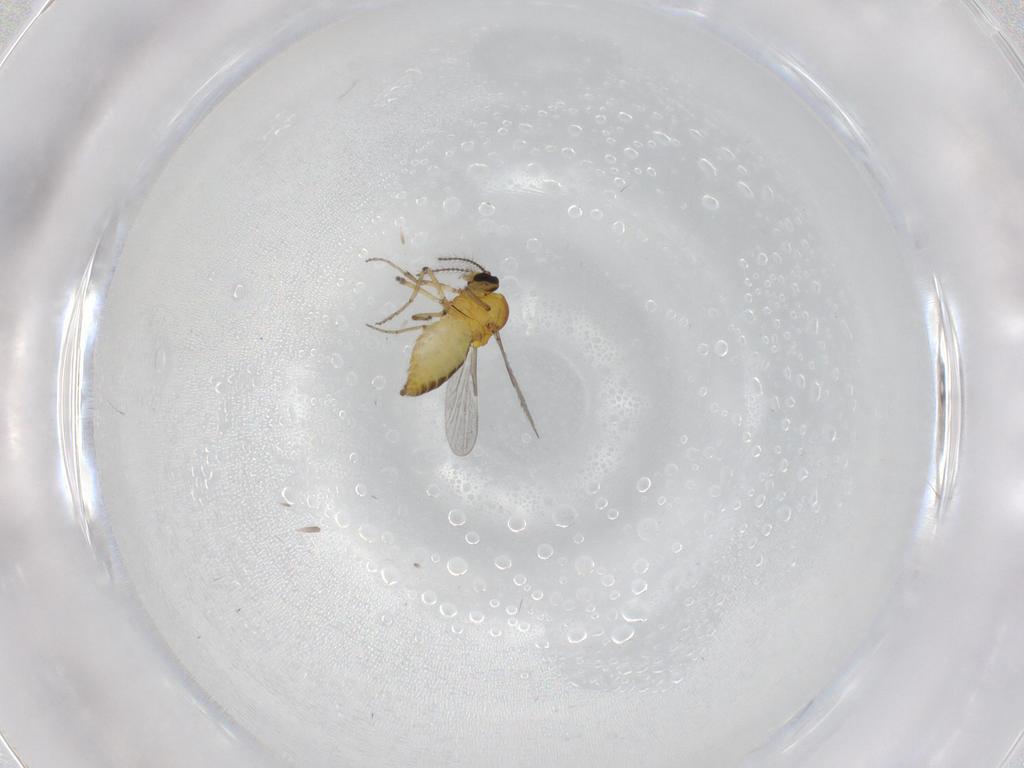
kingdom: Animalia
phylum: Arthropoda
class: Insecta
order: Diptera
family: Ceratopogonidae
